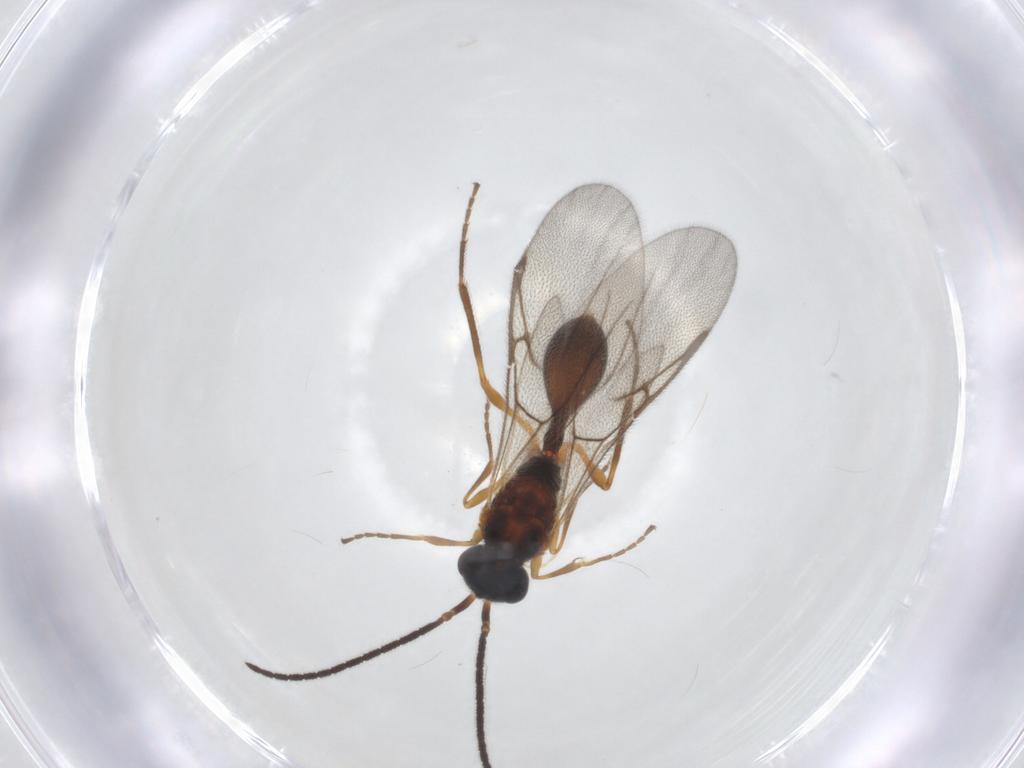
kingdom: Animalia
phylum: Arthropoda
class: Insecta
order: Hymenoptera
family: Diapriidae
